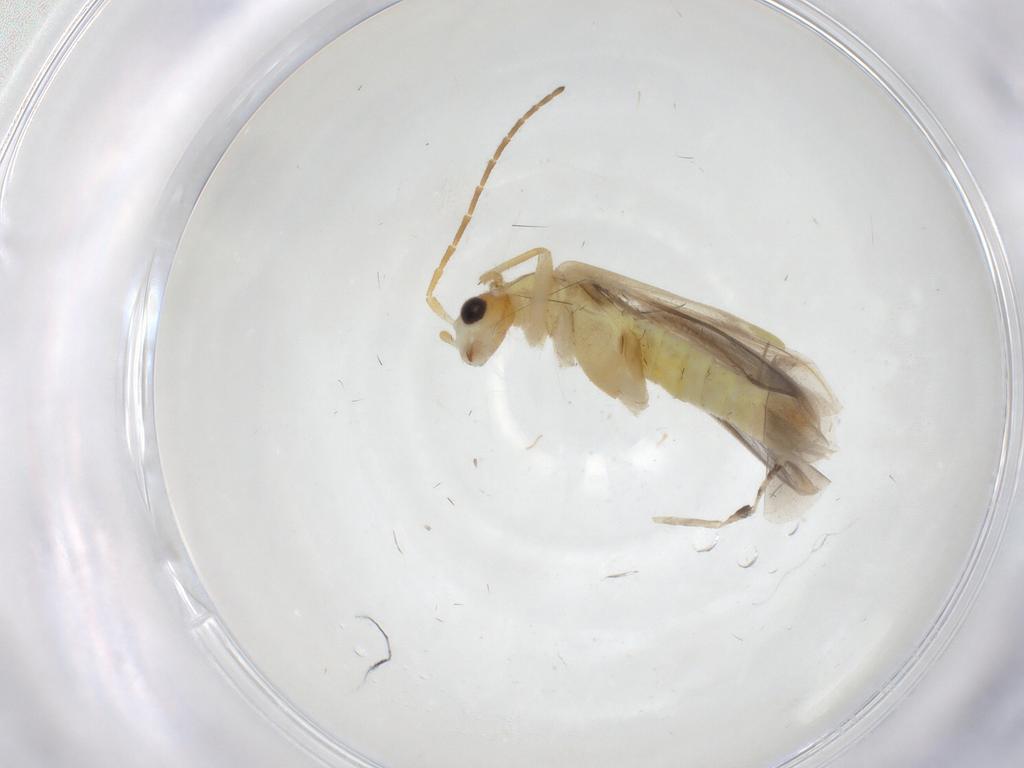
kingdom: Animalia
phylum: Arthropoda
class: Insecta
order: Coleoptera
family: Cantharidae
